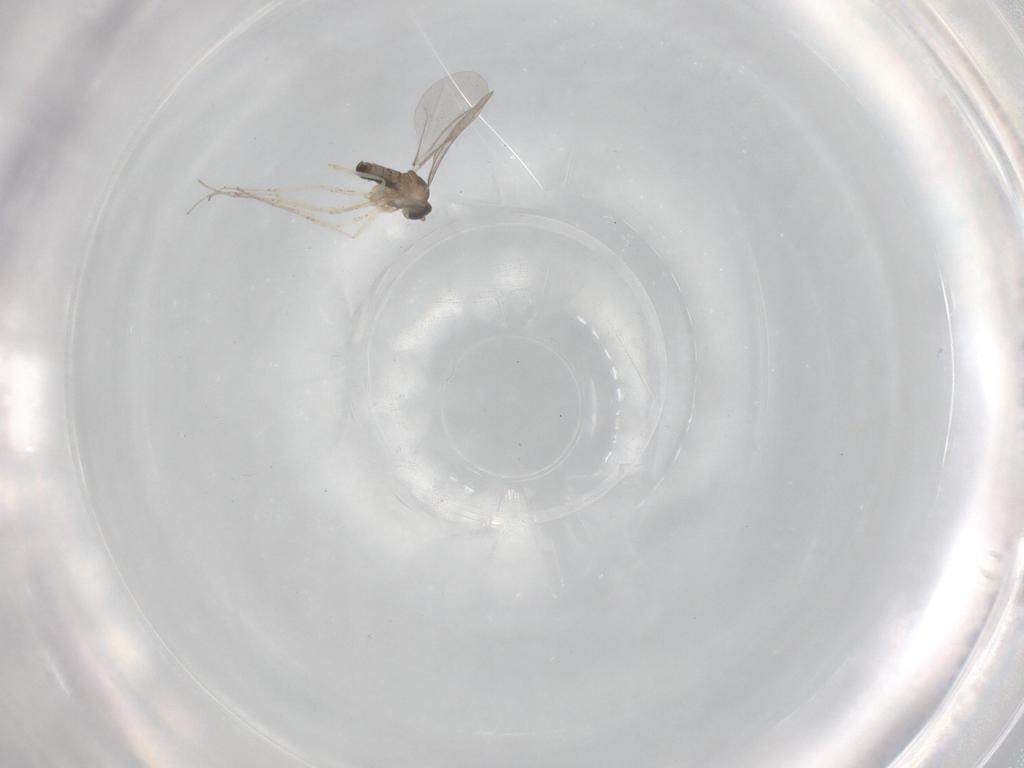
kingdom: Animalia
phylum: Arthropoda
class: Insecta
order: Diptera
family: Cecidomyiidae
